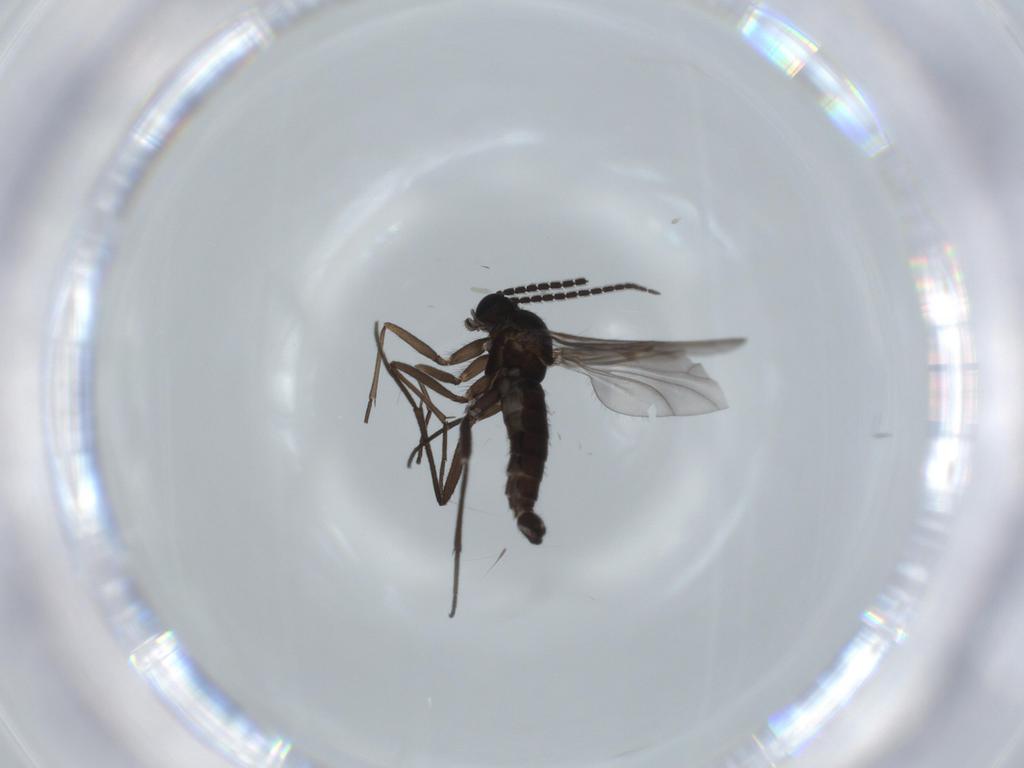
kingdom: Animalia
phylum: Arthropoda
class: Insecta
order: Diptera
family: Sciaridae
